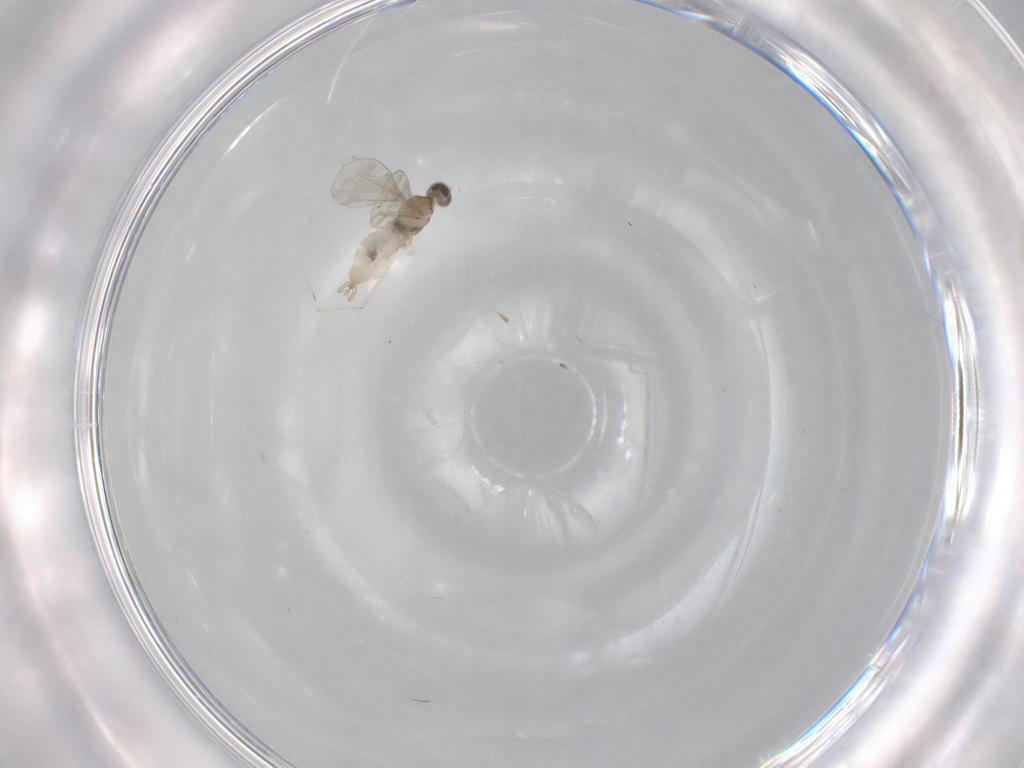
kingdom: Animalia
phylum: Arthropoda
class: Insecta
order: Diptera
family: Cecidomyiidae
